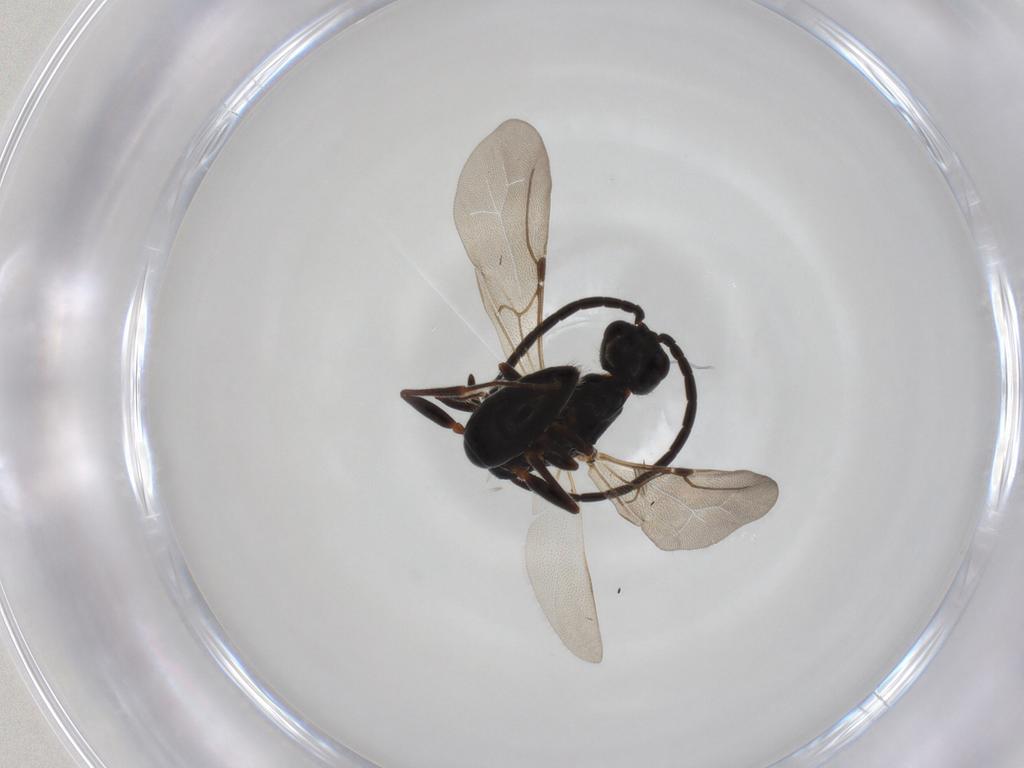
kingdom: Animalia
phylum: Arthropoda
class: Insecta
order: Hymenoptera
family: Bethylidae
